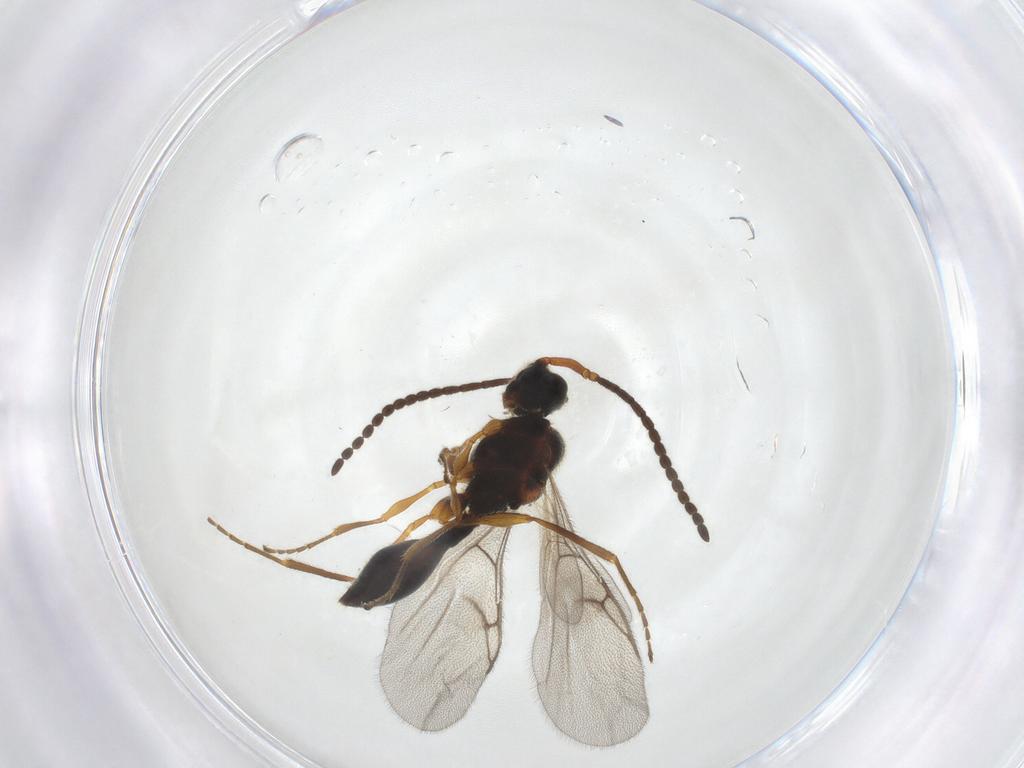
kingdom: Animalia
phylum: Arthropoda
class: Insecta
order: Hymenoptera
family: Diapriidae
